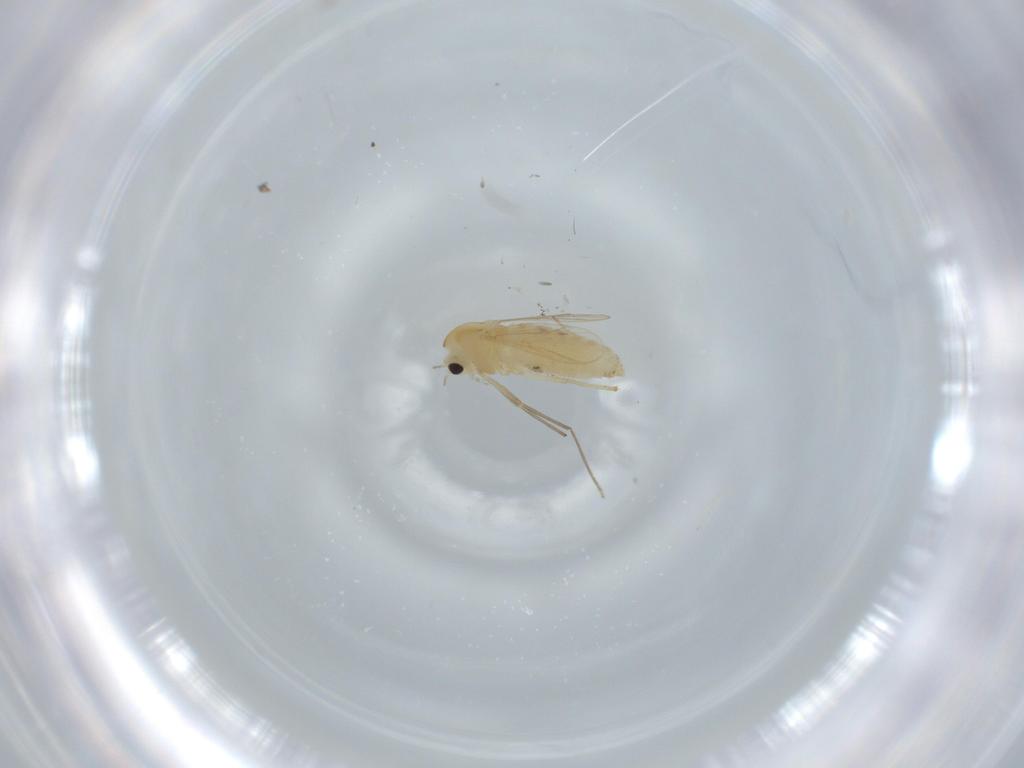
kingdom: Animalia
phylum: Arthropoda
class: Insecta
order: Diptera
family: Chironomidae
